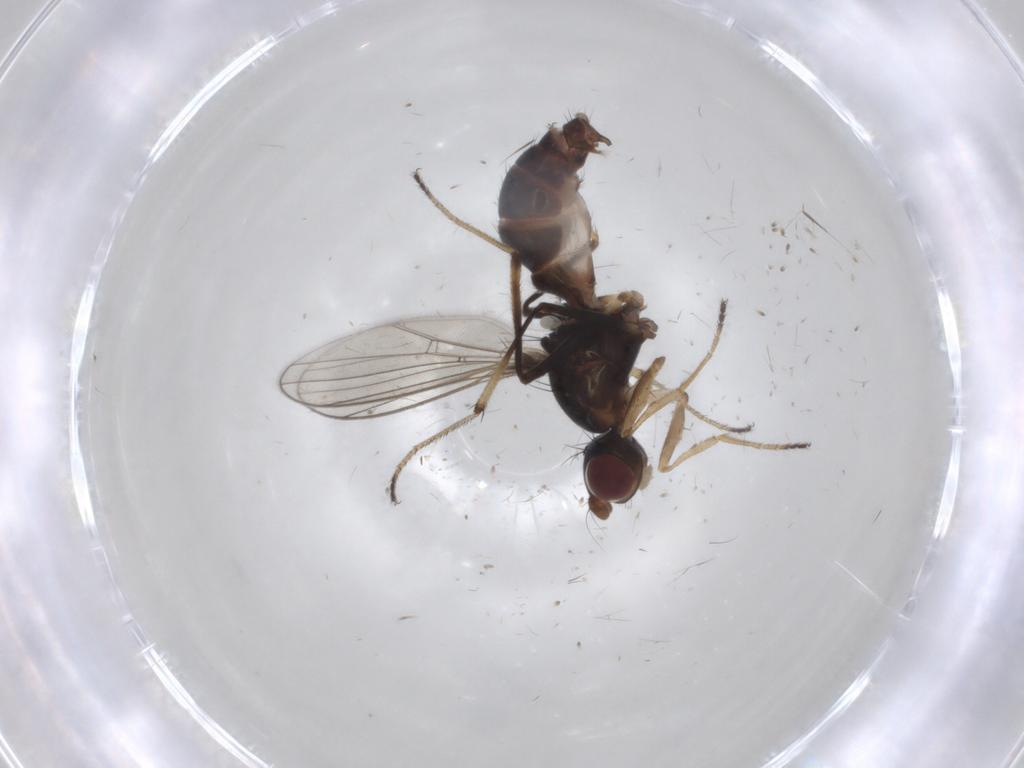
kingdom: Animalia
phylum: Arthropoda
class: Insecta
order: Diptera
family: Sepsidae
